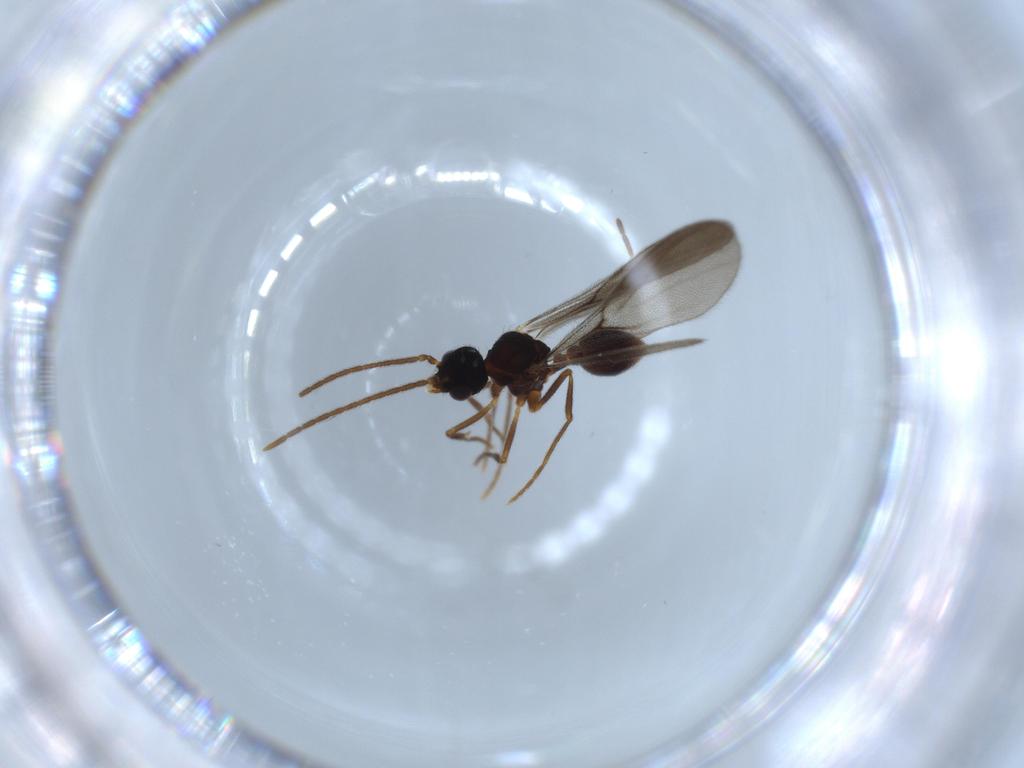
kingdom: Animalia
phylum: Arthropoda
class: Insecta
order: Hymenoptera
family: Formicidae
